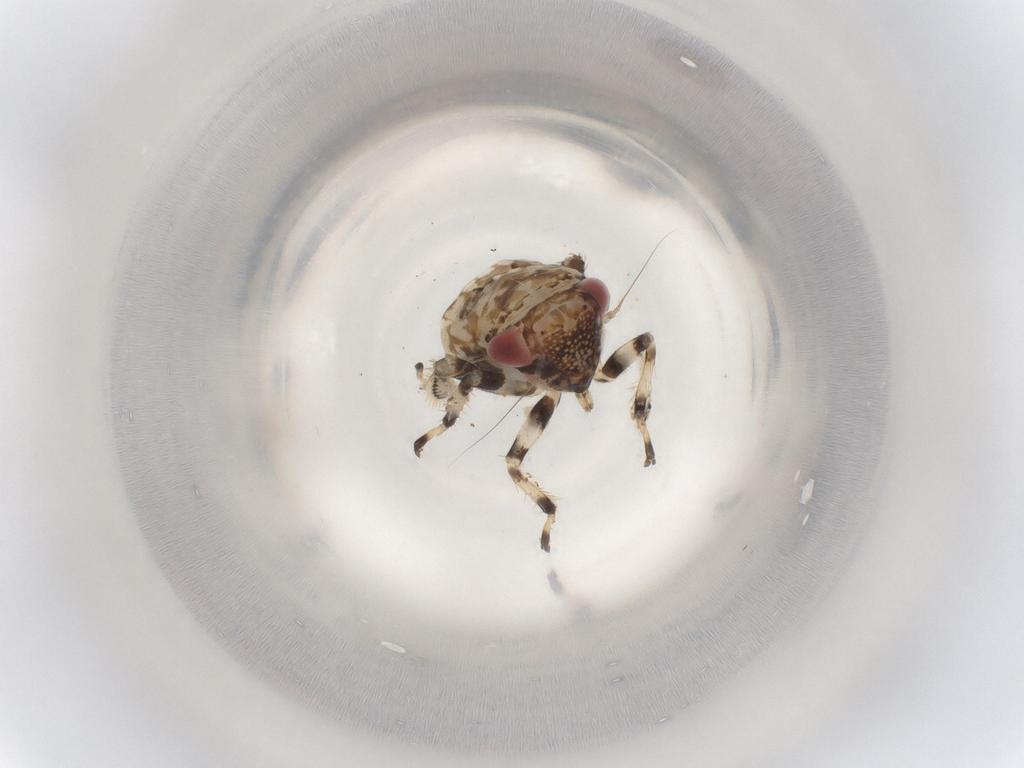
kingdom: Animalia
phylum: Arthropoda
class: Insecta
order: Hemiptera
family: Cicadellidae
